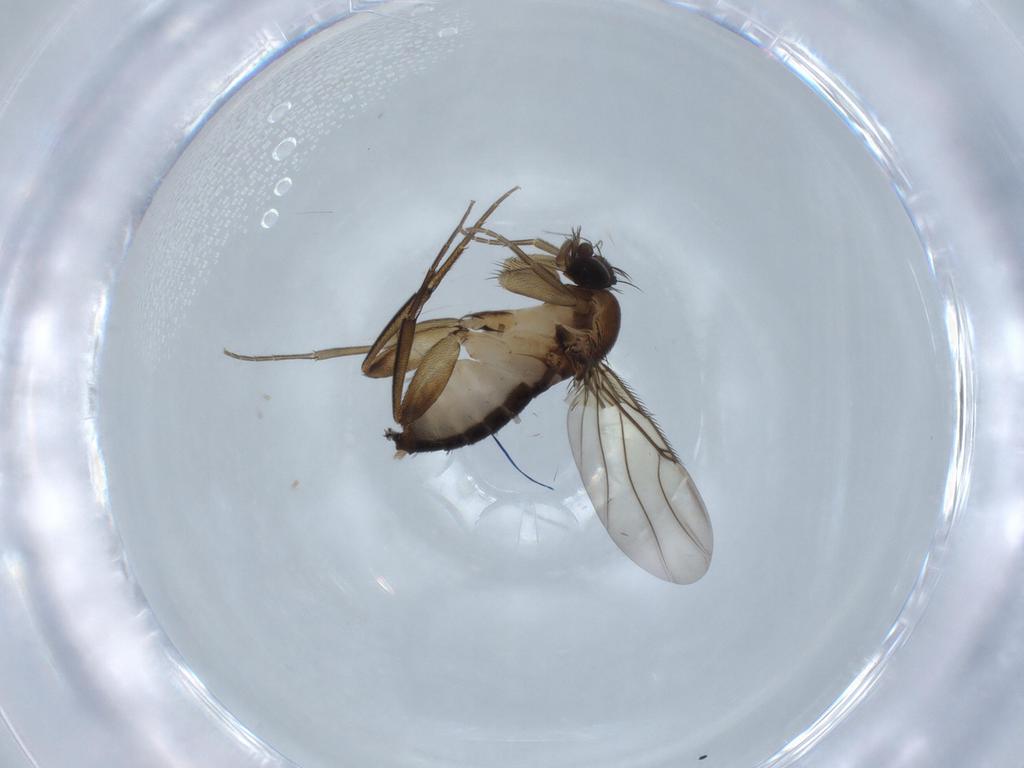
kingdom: Animalia
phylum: Arthropoda
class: Insecta
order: Diptera
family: Phoridae
